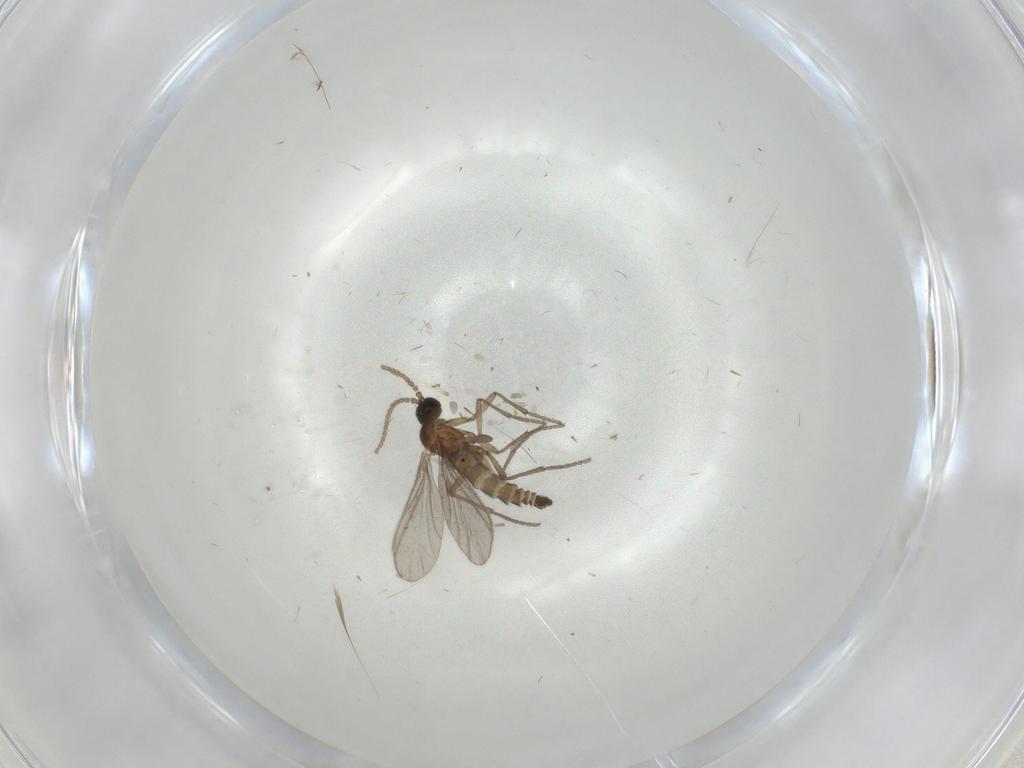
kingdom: Animalia
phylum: Arthropoda
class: Insecta
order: Diptera
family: Sciaridae
